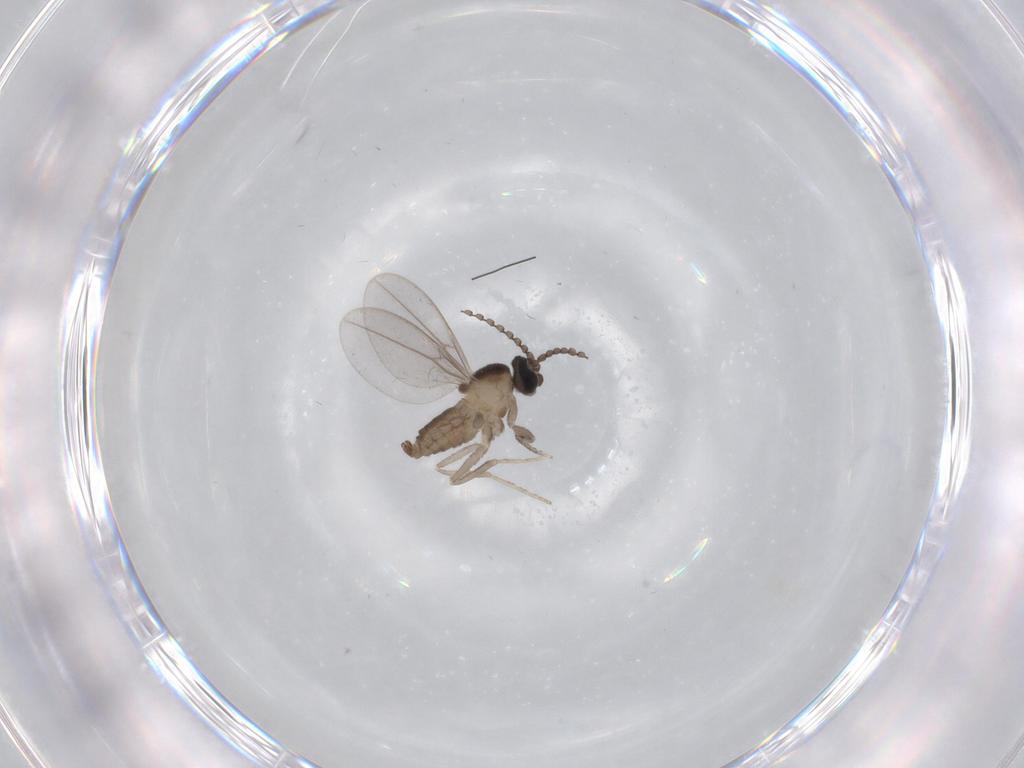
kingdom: Animalia
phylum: Arthropoda
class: Insecta
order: Diptera
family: Cecidomyiidae
